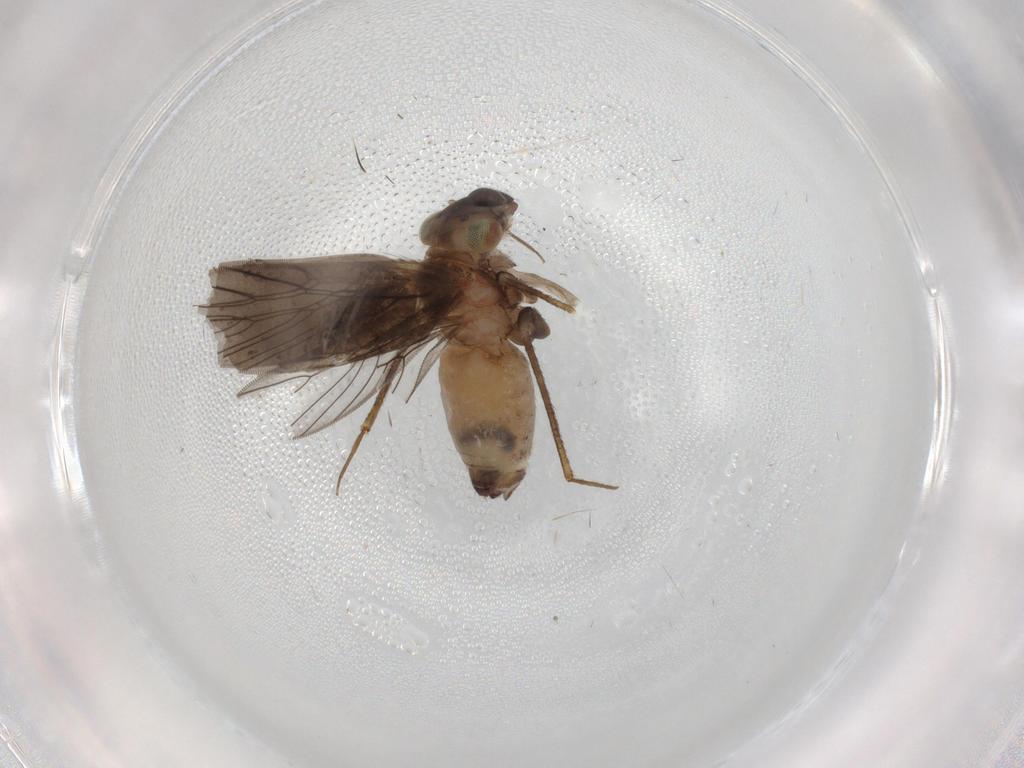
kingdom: Animalia
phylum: Arthropoda
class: Insecta
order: Psocodea
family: Lepidopsocidae
